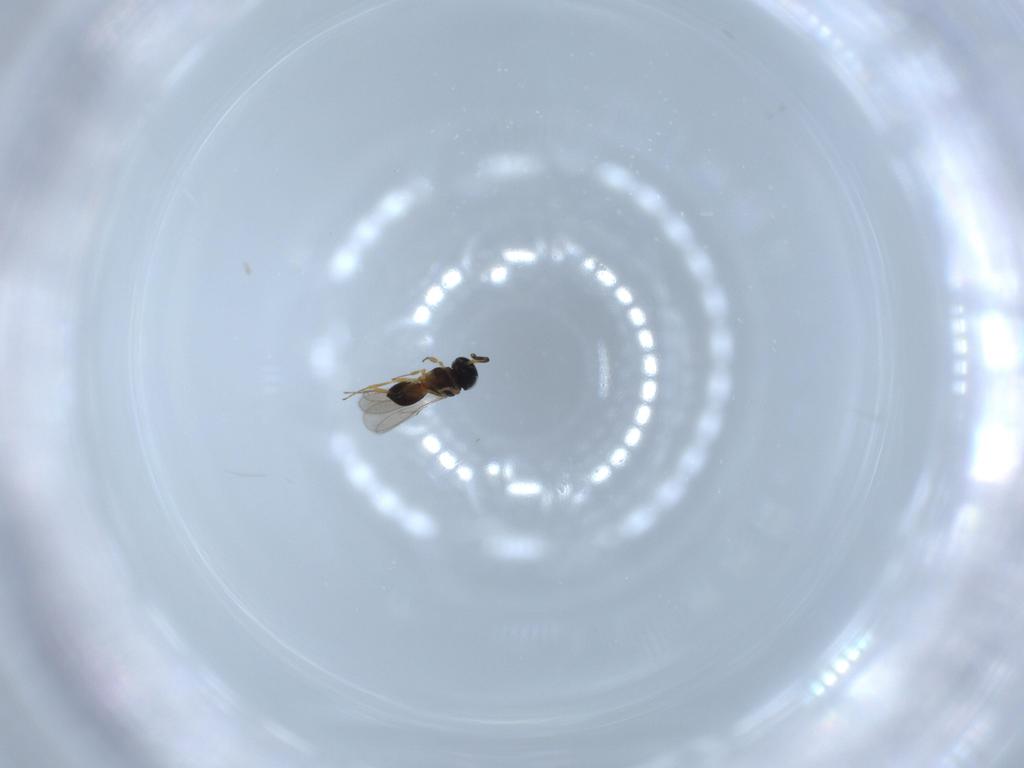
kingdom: Animalia
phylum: Arthropoda
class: Insecta
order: Hymenoptera
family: Scelionidae
